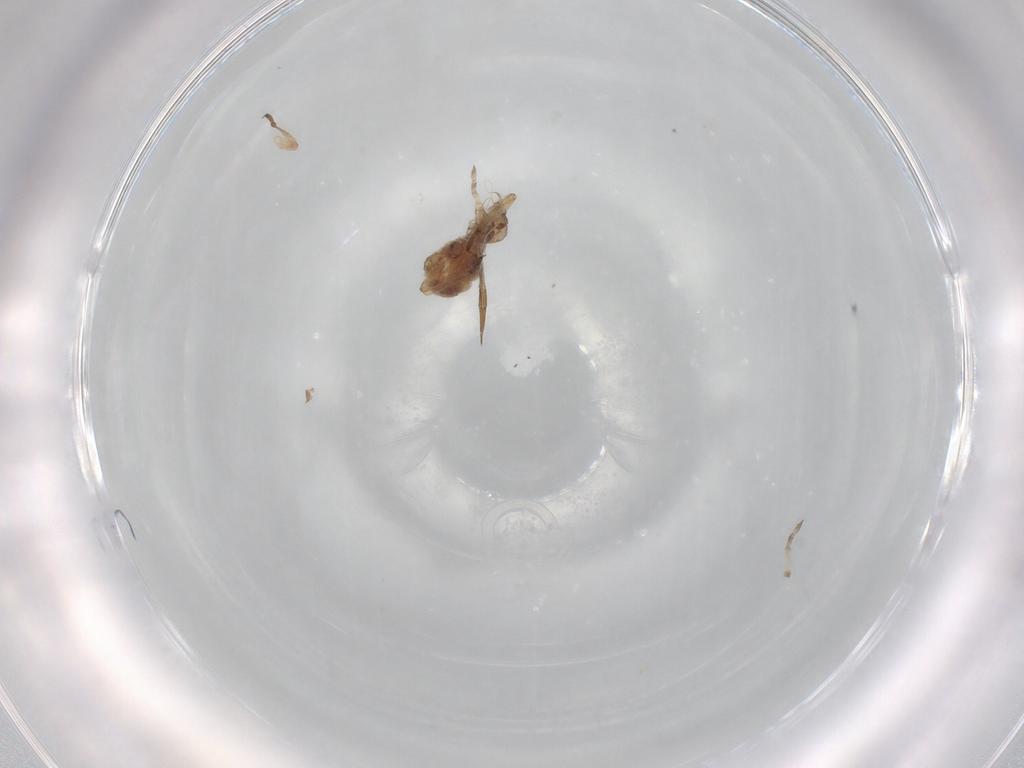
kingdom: Animalia
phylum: Arthropoda
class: Insecta
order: Hemiptera
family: Aphididae
